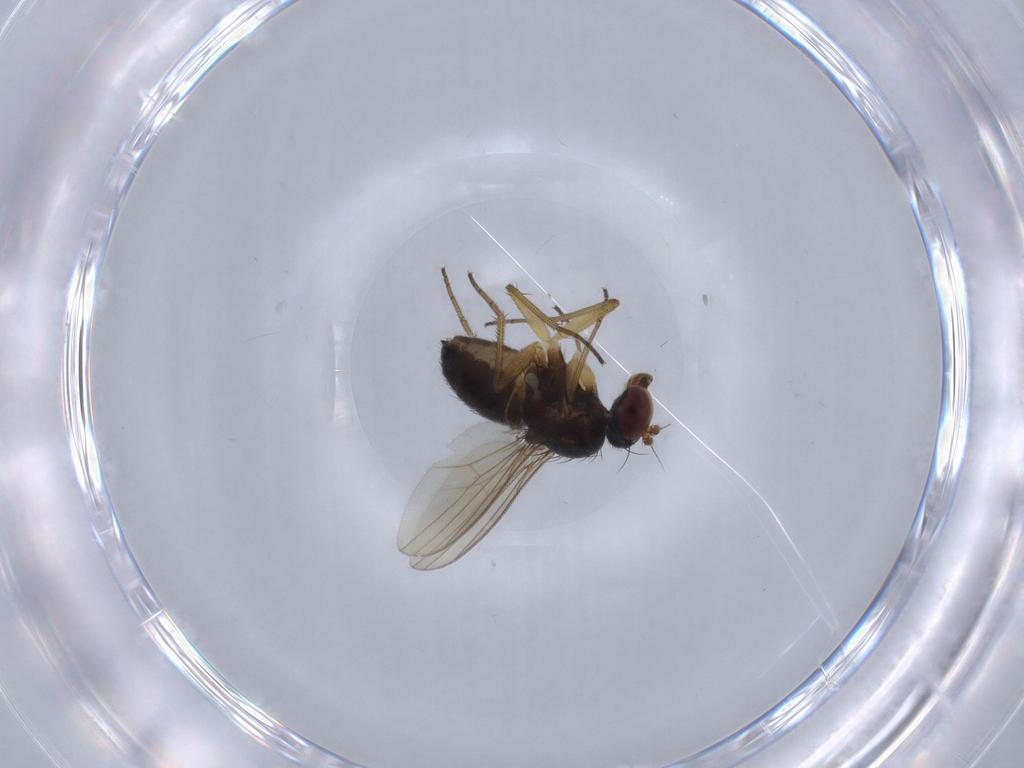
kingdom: Animalia
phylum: Arthropoda
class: Insecta
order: Diptera
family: Dolichopodidae
